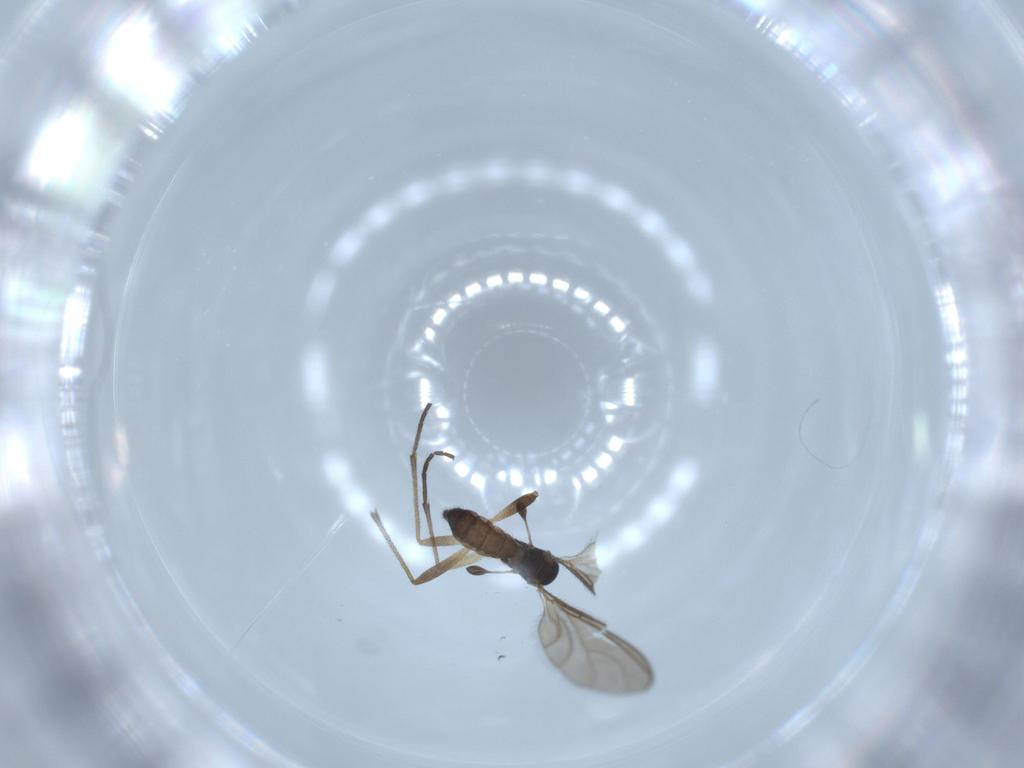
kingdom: Animalia
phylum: Arthropoda
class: Insecta
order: Diptera
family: Sciaridae
